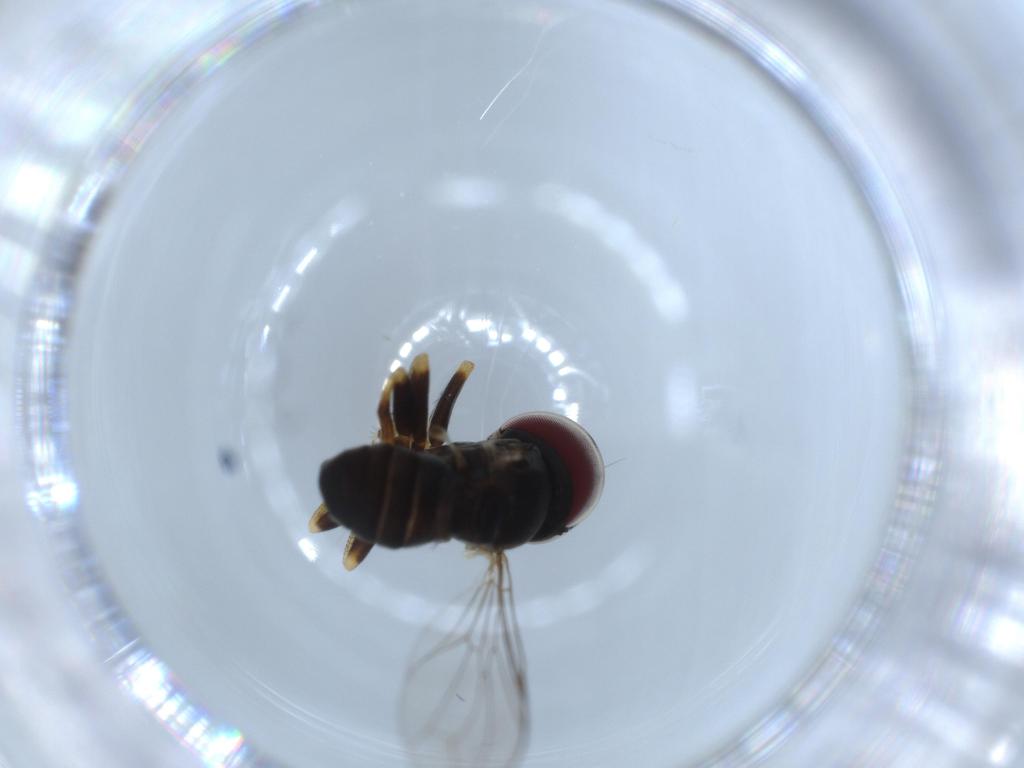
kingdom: Animalia
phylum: Arthropoda
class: Insecta
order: Diptera
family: Pipunculidae
